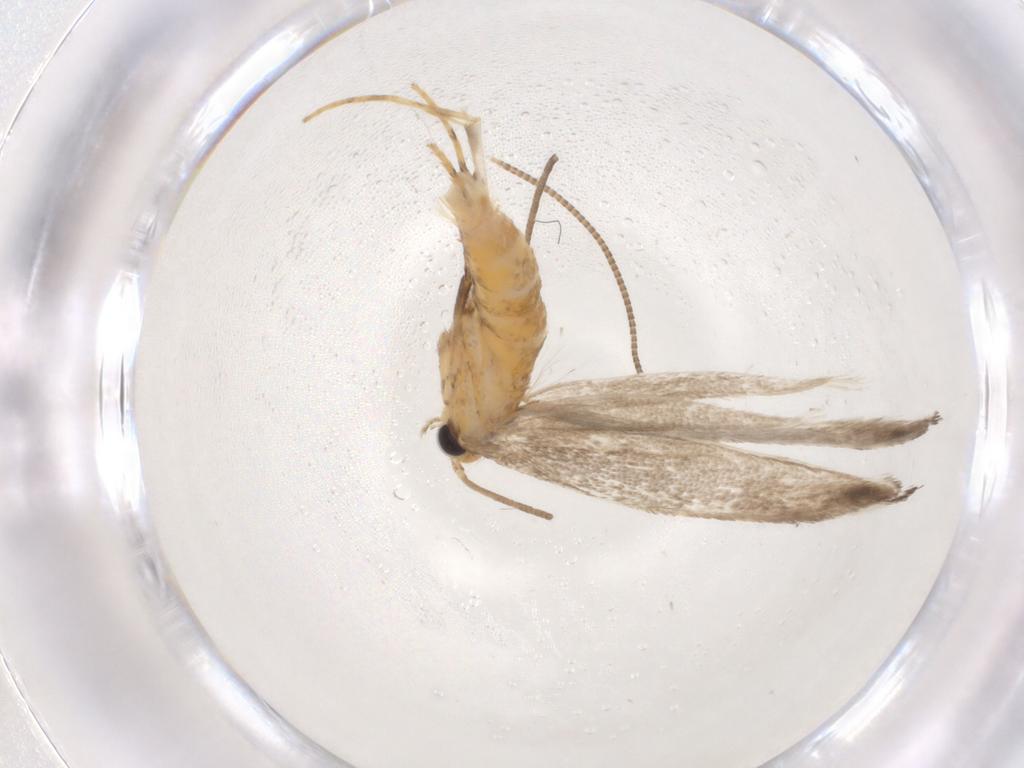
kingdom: Animalia
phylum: Arthropoda
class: Insecta
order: Lepidoptera
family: Gracillariidae
